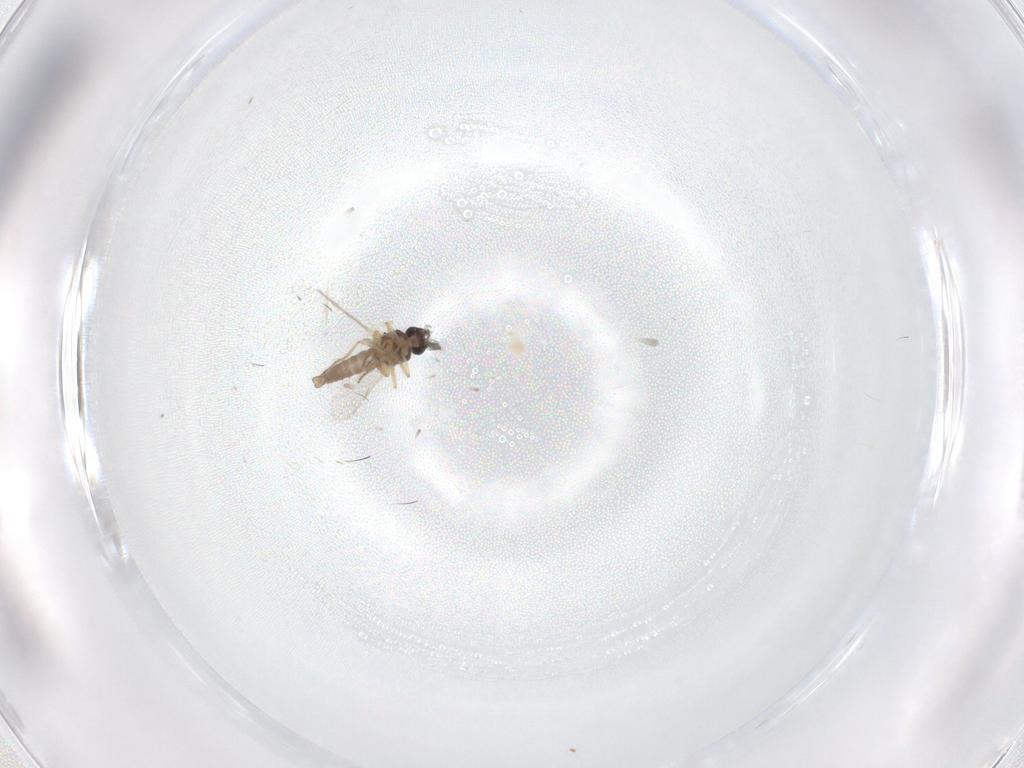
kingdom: Animalia
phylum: Arthropoda
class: Insecta
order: Diptera
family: Ceratopogonidae
